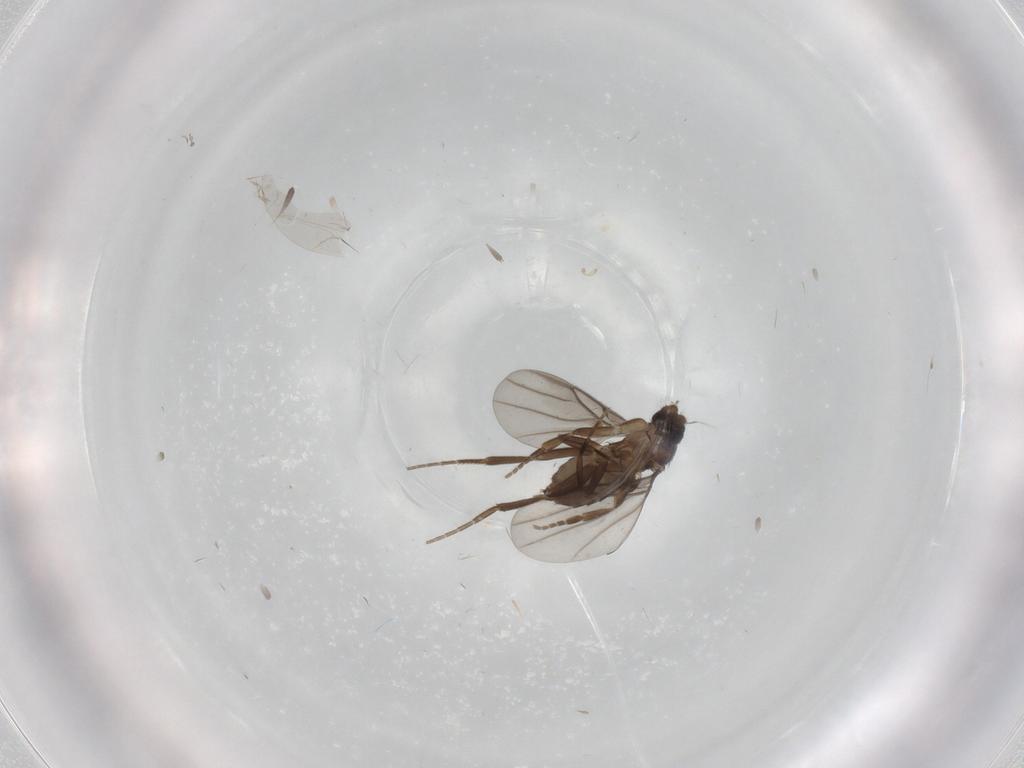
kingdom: Animalia
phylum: Arthropoda
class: Insecta
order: Diptera
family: Phoridae
